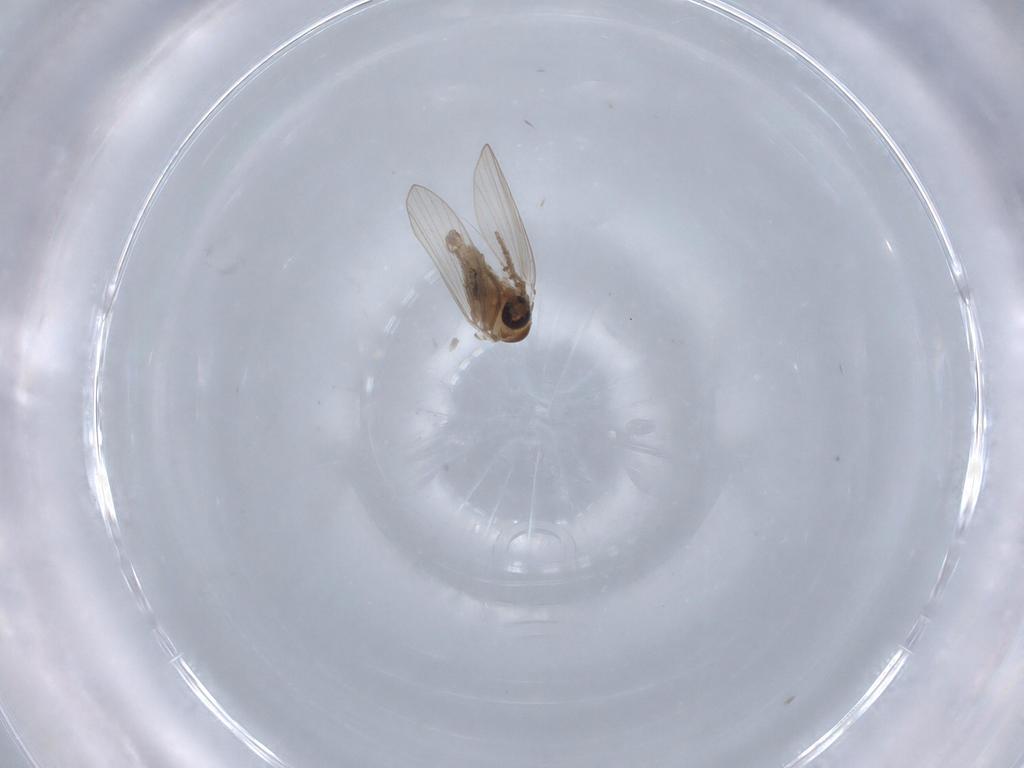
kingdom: Animalia
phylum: Arthropoda
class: Insecta
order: Diptera
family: Psychodidae
